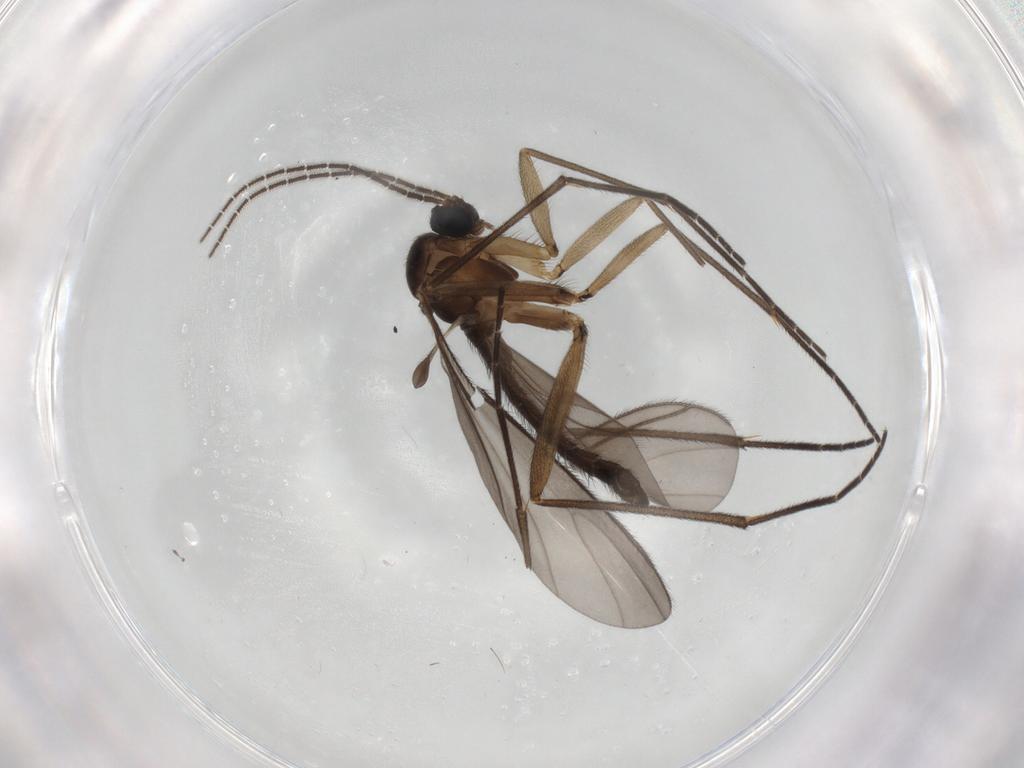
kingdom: Animalia
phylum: Arthropoda
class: Insecta
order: Diptera
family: Sciaridae
